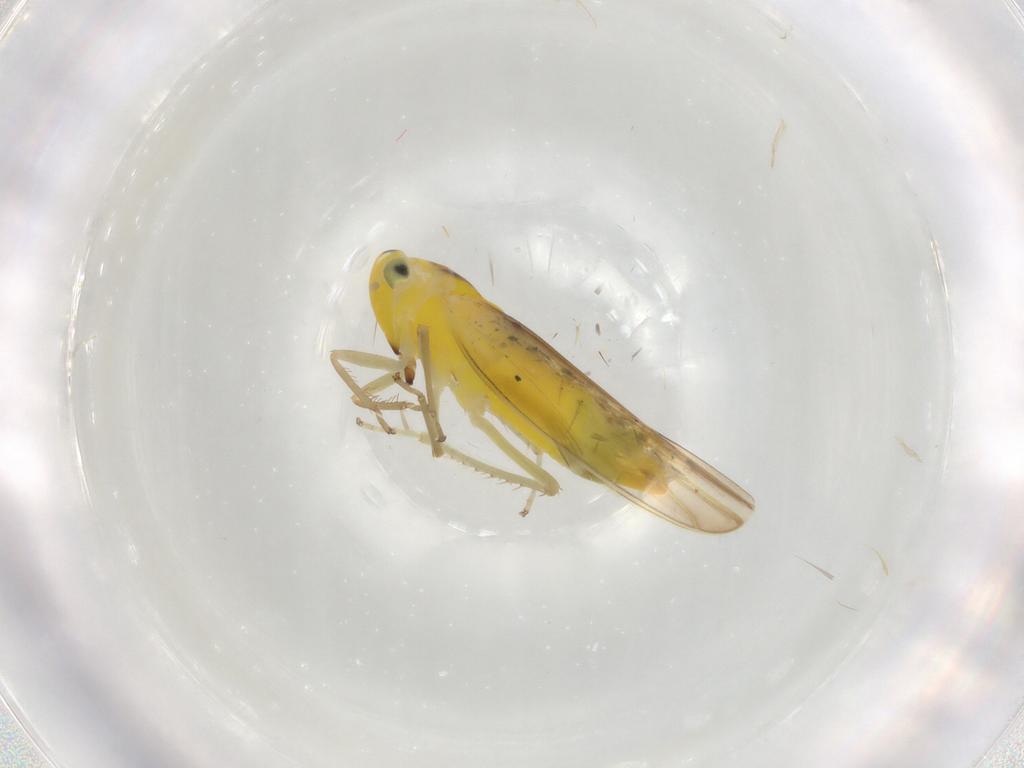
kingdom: Animalia
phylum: Arthropoda
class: Insecta
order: Hemiptera
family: Cicadellidae
